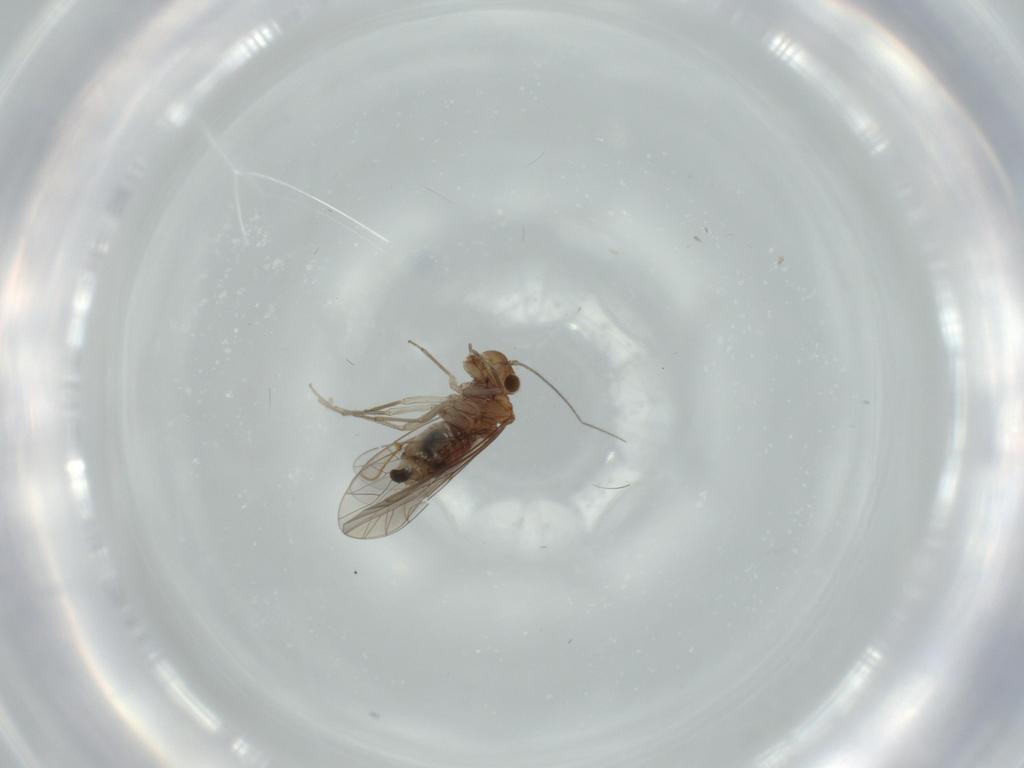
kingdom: Animalia
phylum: Arthropoda
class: Insecta
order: Psocodea
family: Lachesillidae
